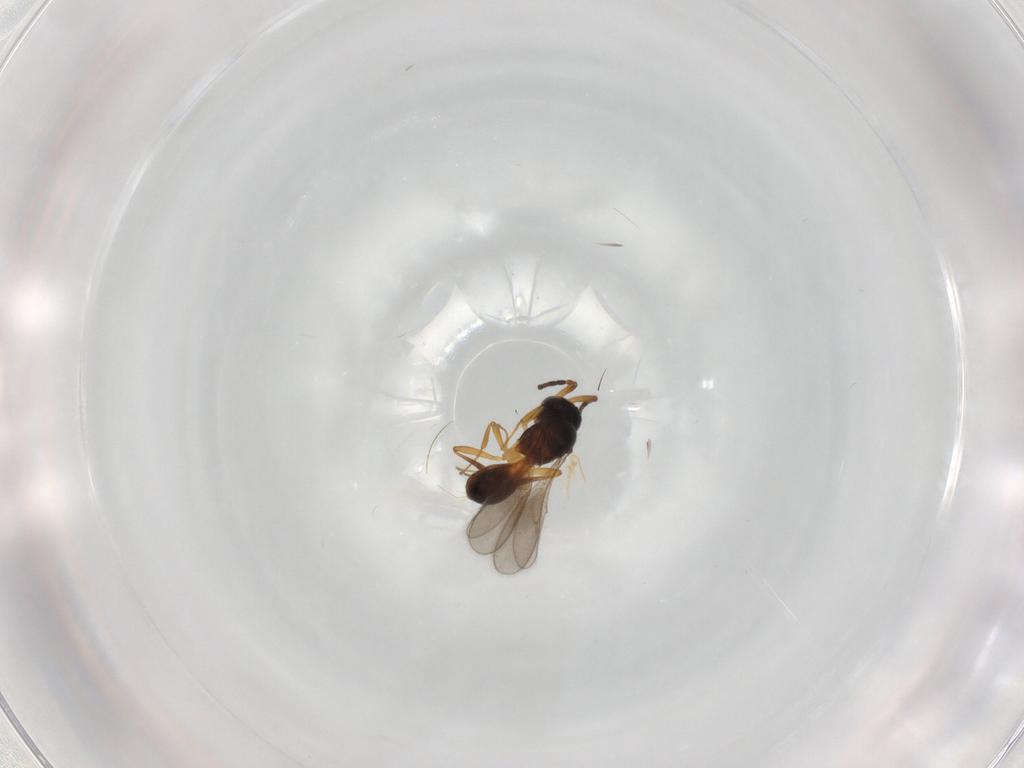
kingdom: Animalia
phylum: Arthropoda
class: Insecta
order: Hymenoptera
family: Scelionidae
